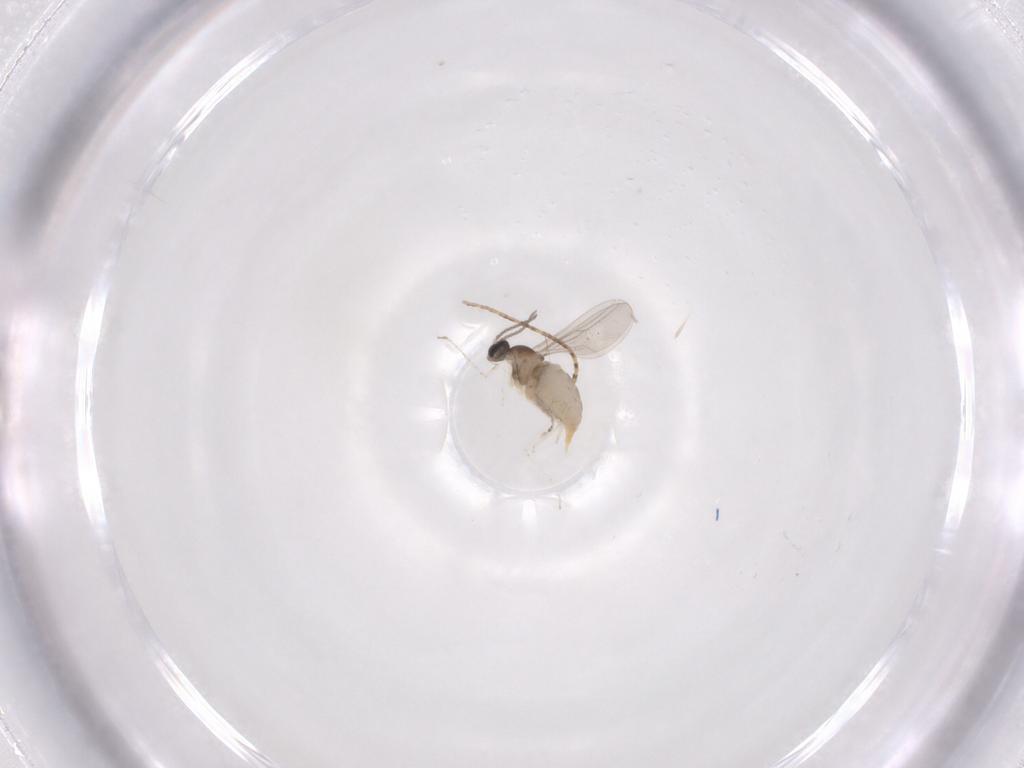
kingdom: Animalia
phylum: Arthropoda
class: Insecta
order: Diptera
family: Cecidomyiidae
